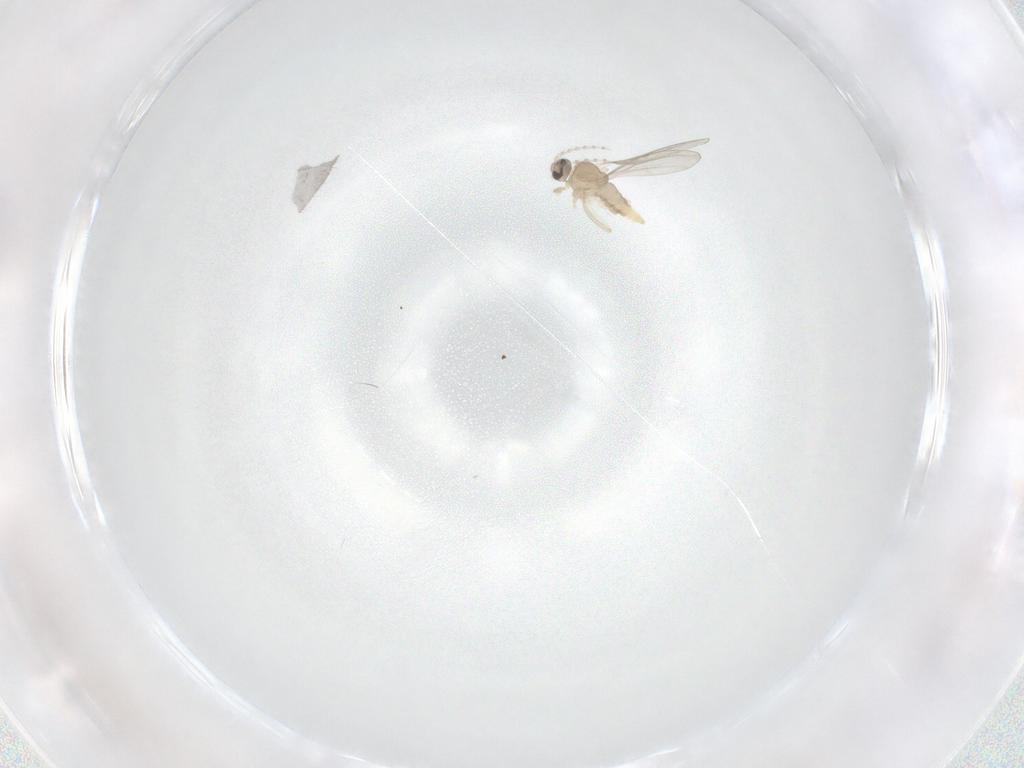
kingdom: Animalia
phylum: Arthropoda
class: Insecta
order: Diptera
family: Cecidomyiidae
